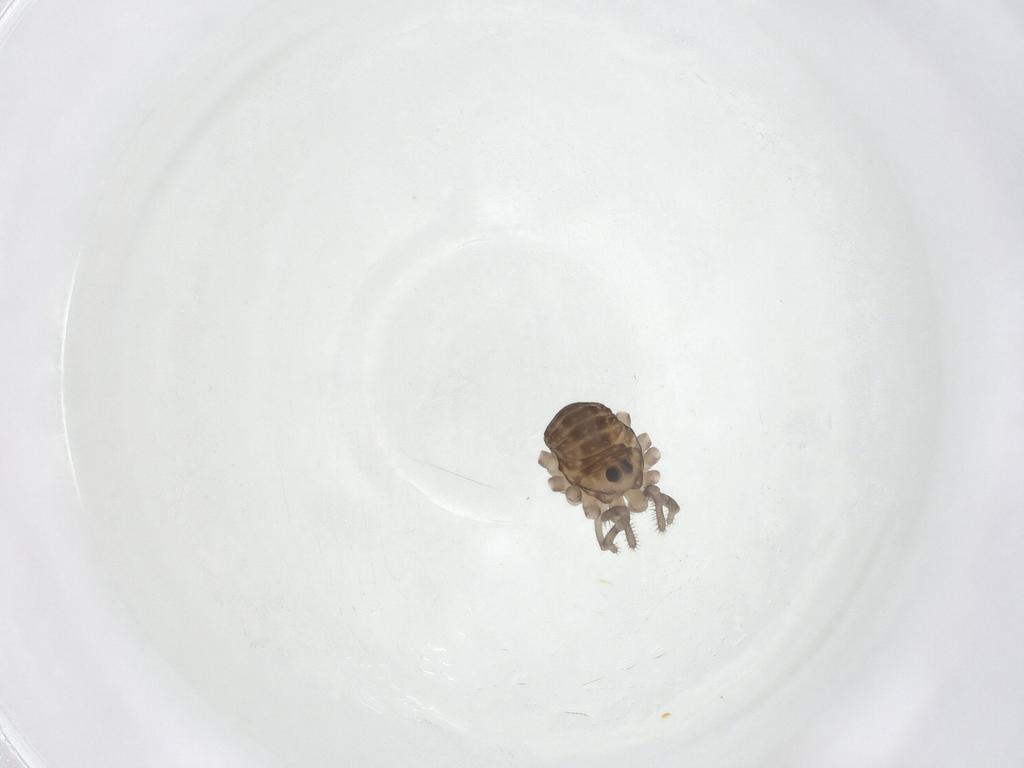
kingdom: Animalia
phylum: Arthropoda
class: Arachnida
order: Opiliones
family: Sclerosomatidae
